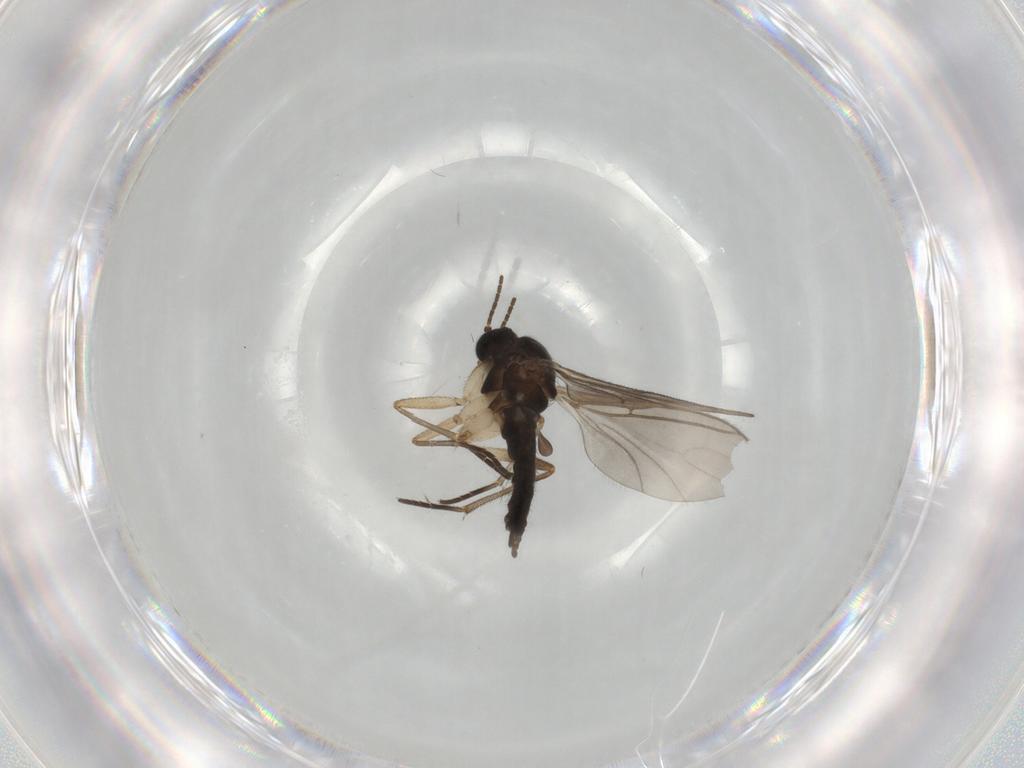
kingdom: Animalia
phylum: Arthropoda
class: Insecta
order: Diptera
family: Sciaridae
